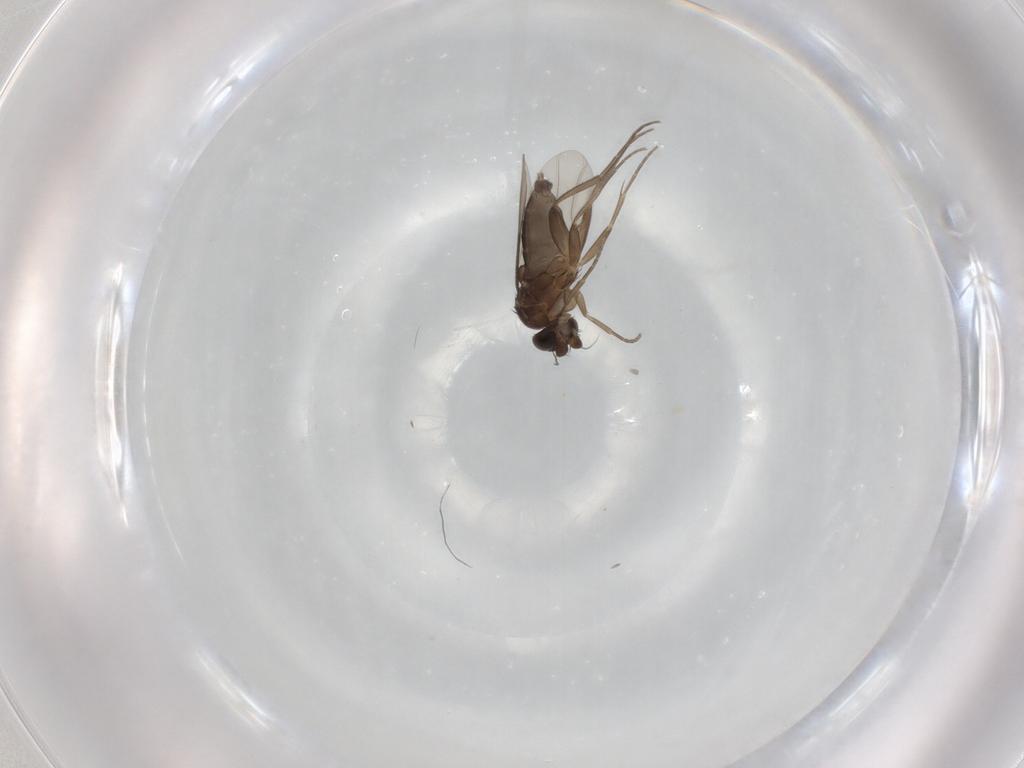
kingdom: Animalia
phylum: Arthropoda
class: Insecta
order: Diptera
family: Phoridae
